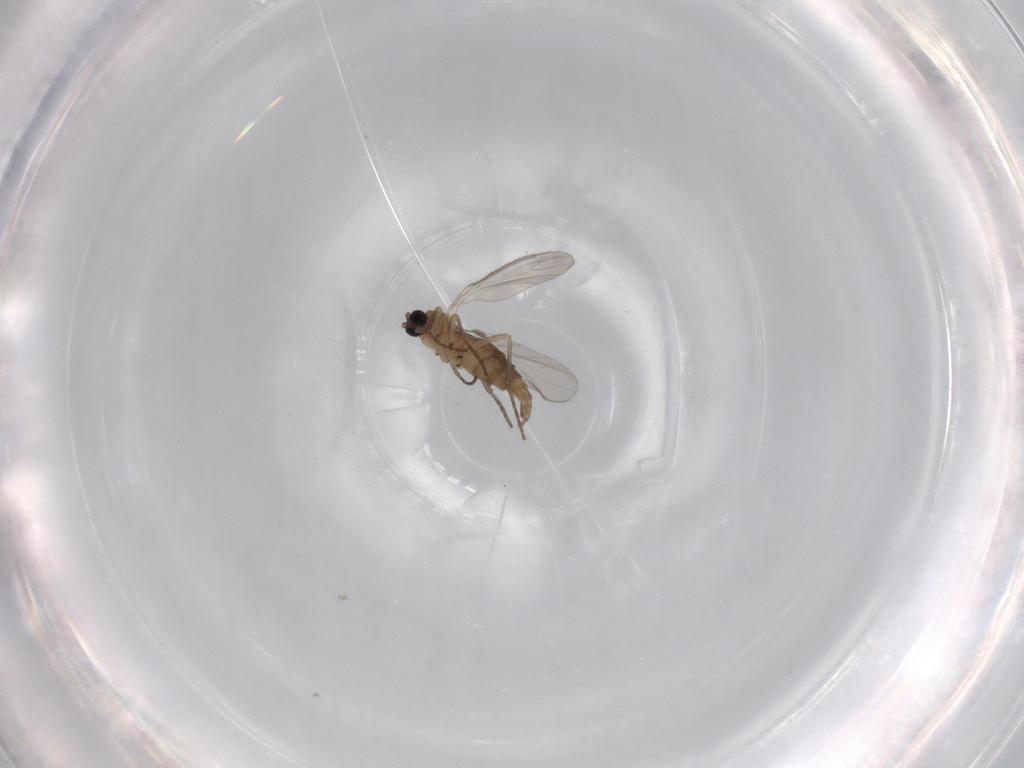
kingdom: Animalia
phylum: Arthropoda
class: Insecta
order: Diptera
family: Sciaridae
